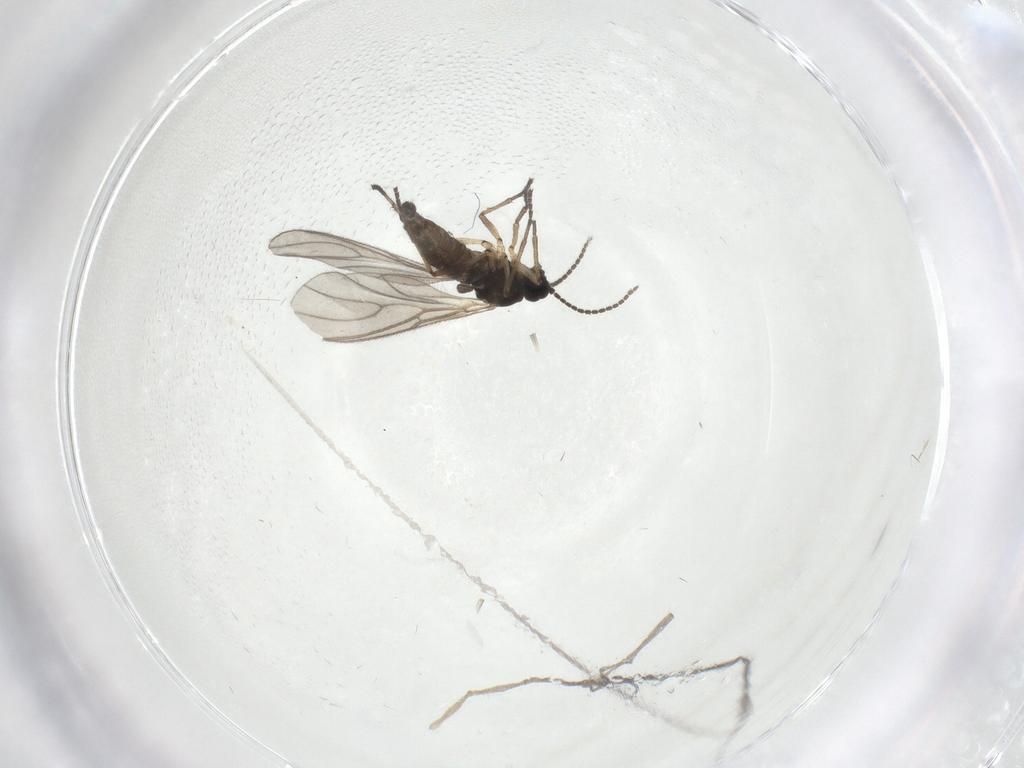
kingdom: Animalia
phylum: Arthropoda
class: Insecta
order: Diptera
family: Sciaridae
